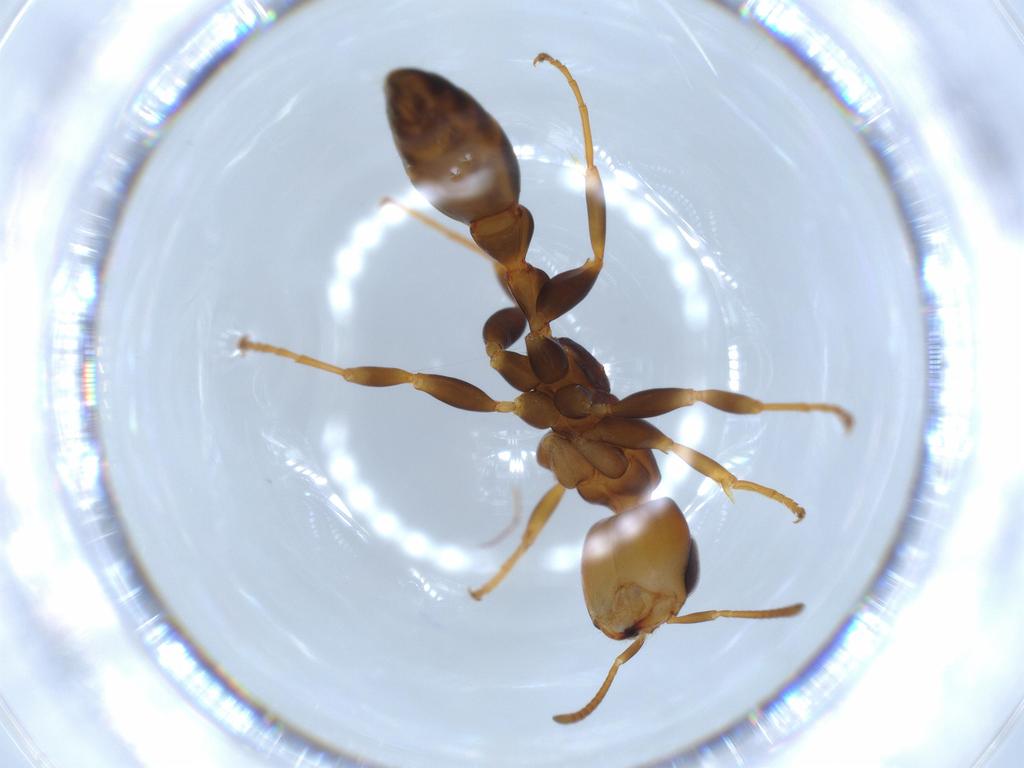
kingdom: Animalia
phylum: Arthropoda
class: Insecta
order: Hymenoptera
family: Formicidae
